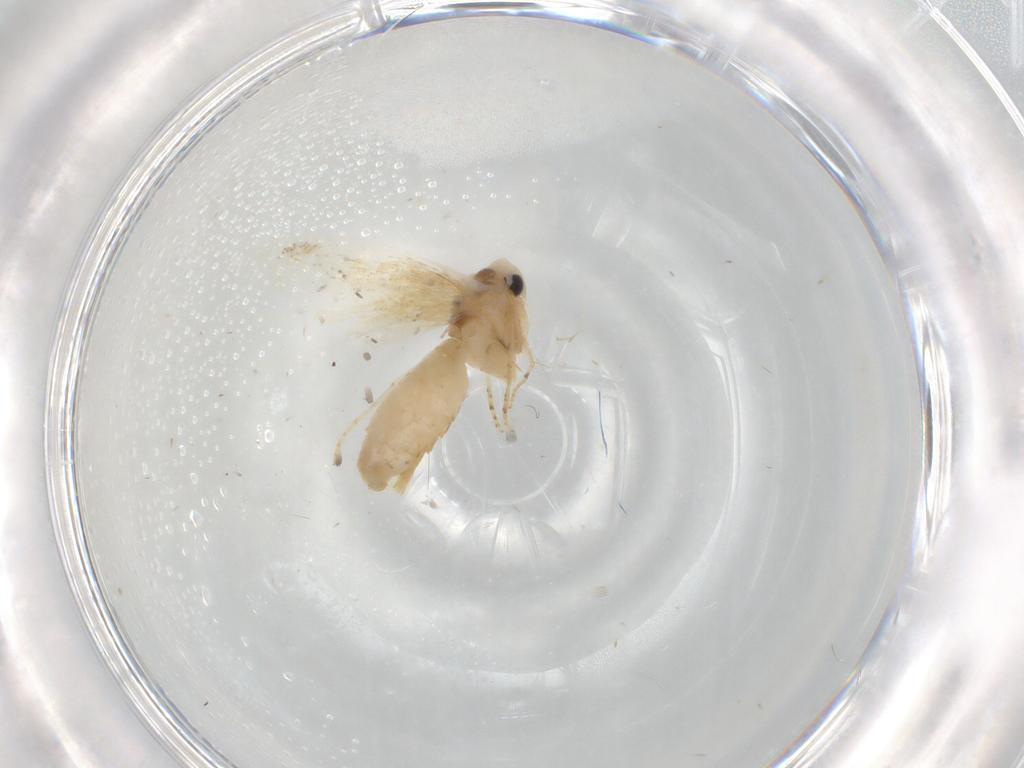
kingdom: Animalia
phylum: Arthropoda
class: Insecta
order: Lepidoptera
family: Bucculatricidae
